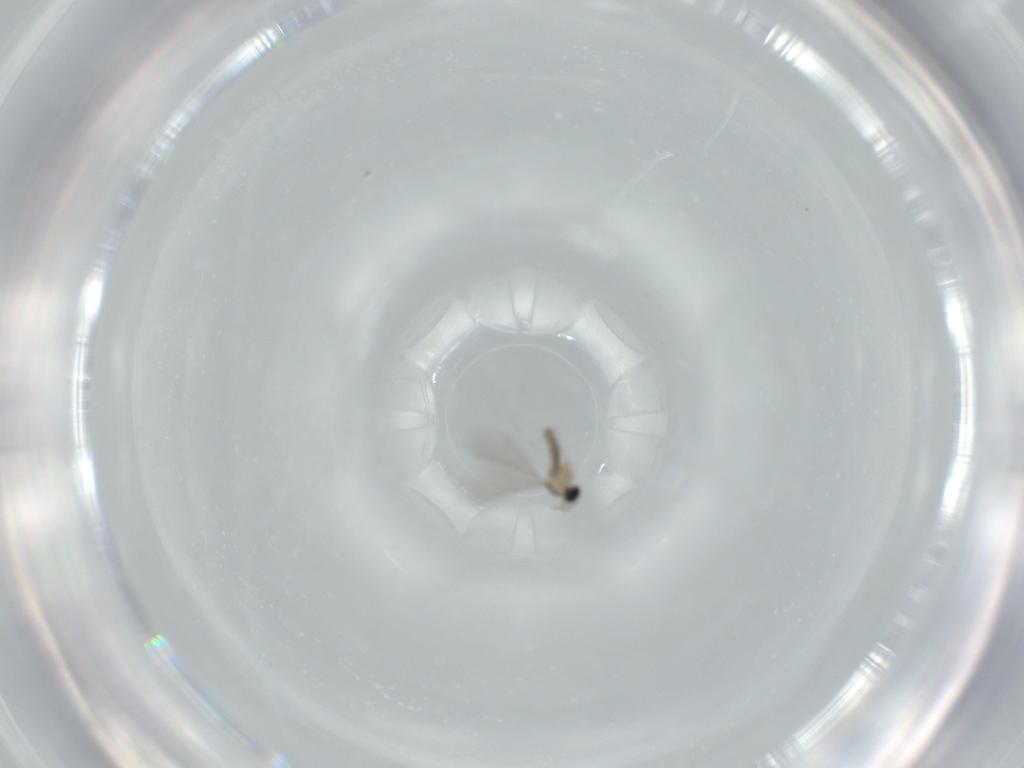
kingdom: Animalia
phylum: Arthropoda
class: Insecta
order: Diptera
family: Cecidomyiidae
